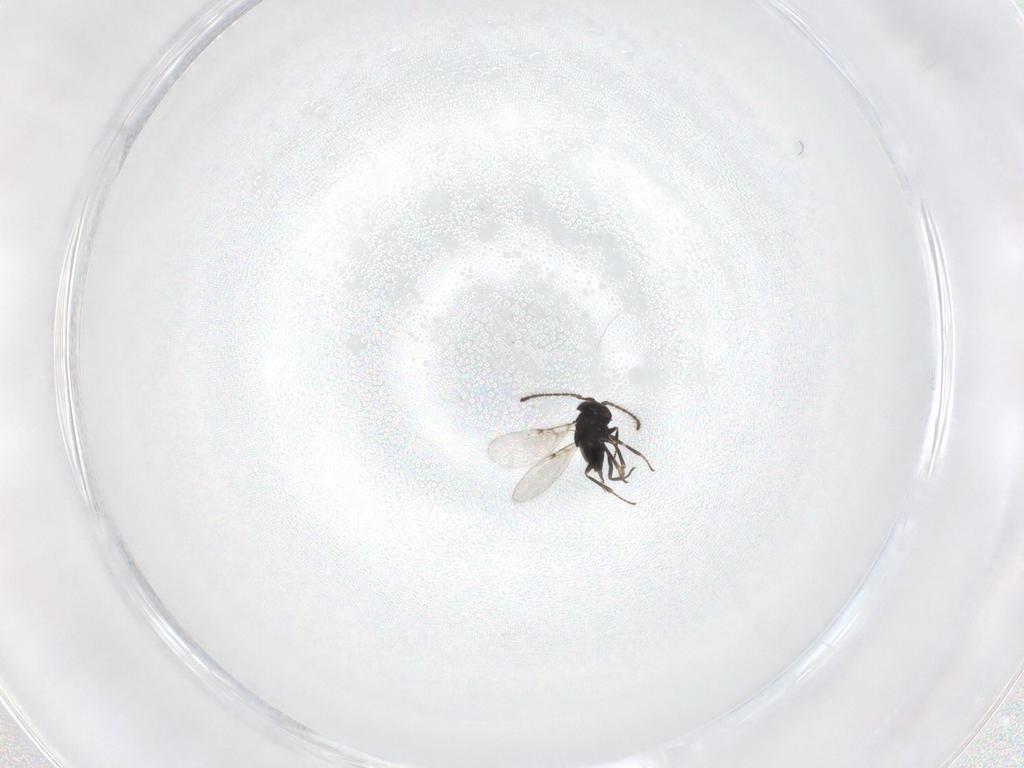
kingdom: Animalia
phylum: Arthropoda
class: Insecta
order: Hymenoptera
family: Encyrtidae
